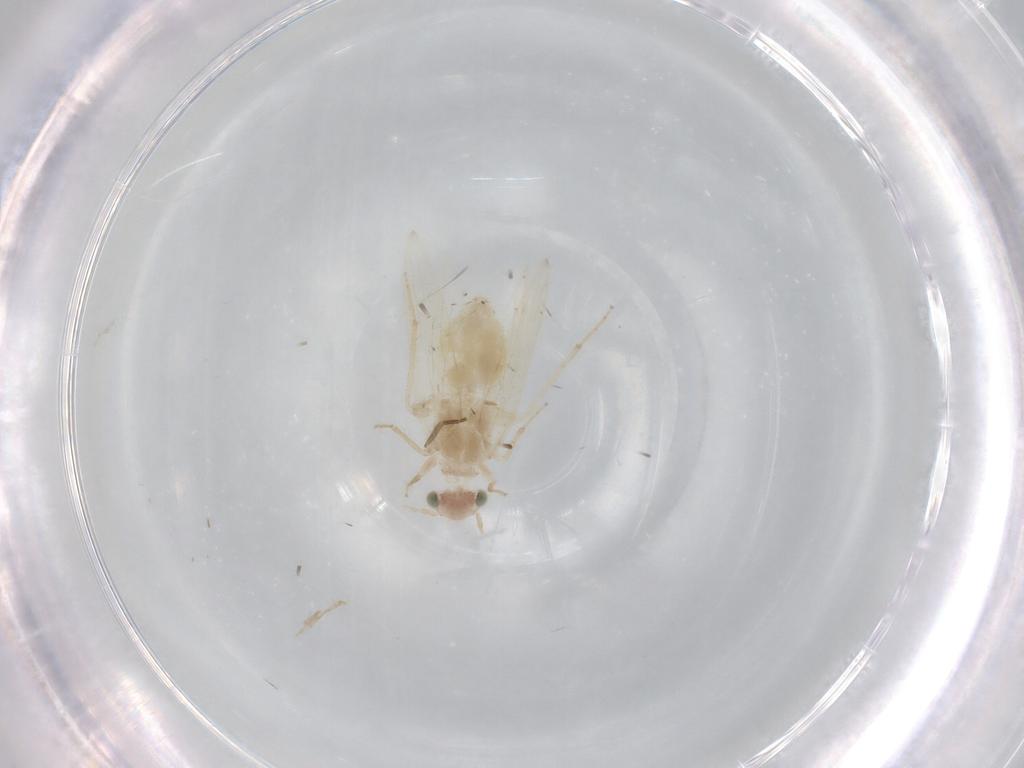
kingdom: Animalia
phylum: Arthropoda
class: Insecta
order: Psocodea
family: Lepidopsocidae
